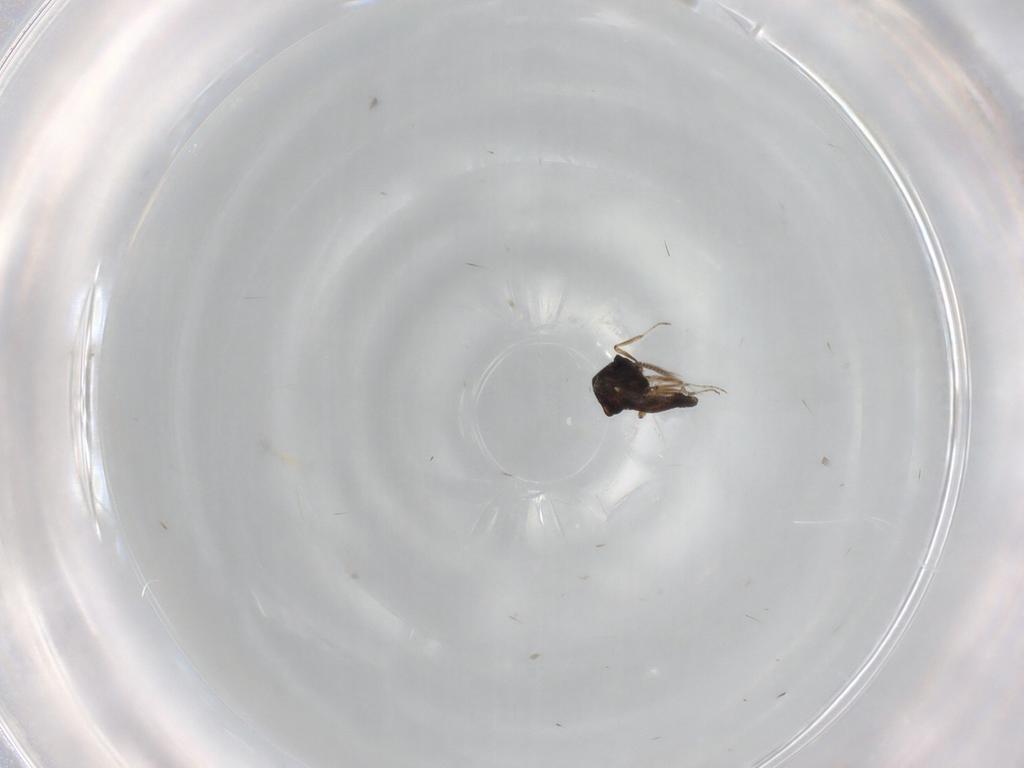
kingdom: Animalia
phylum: Arthropoda
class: Insecta
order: Diptera
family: Ceratopogonidae
